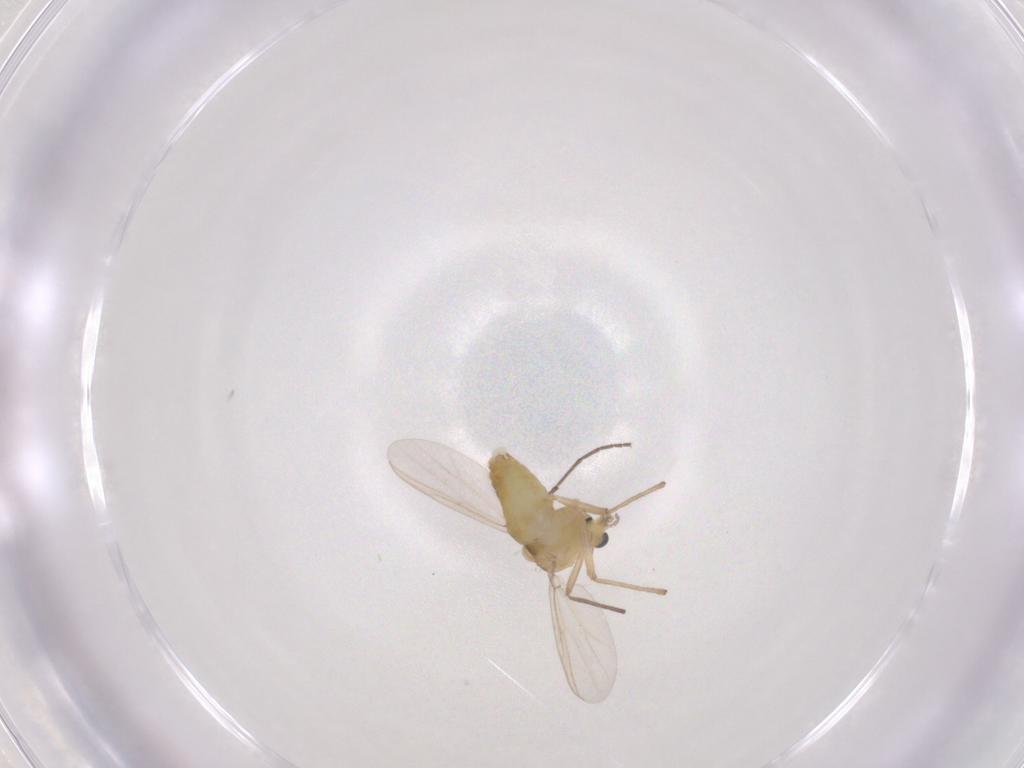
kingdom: Animalia
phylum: Arthropoda
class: Insecta
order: Diptera
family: Chironomidae
